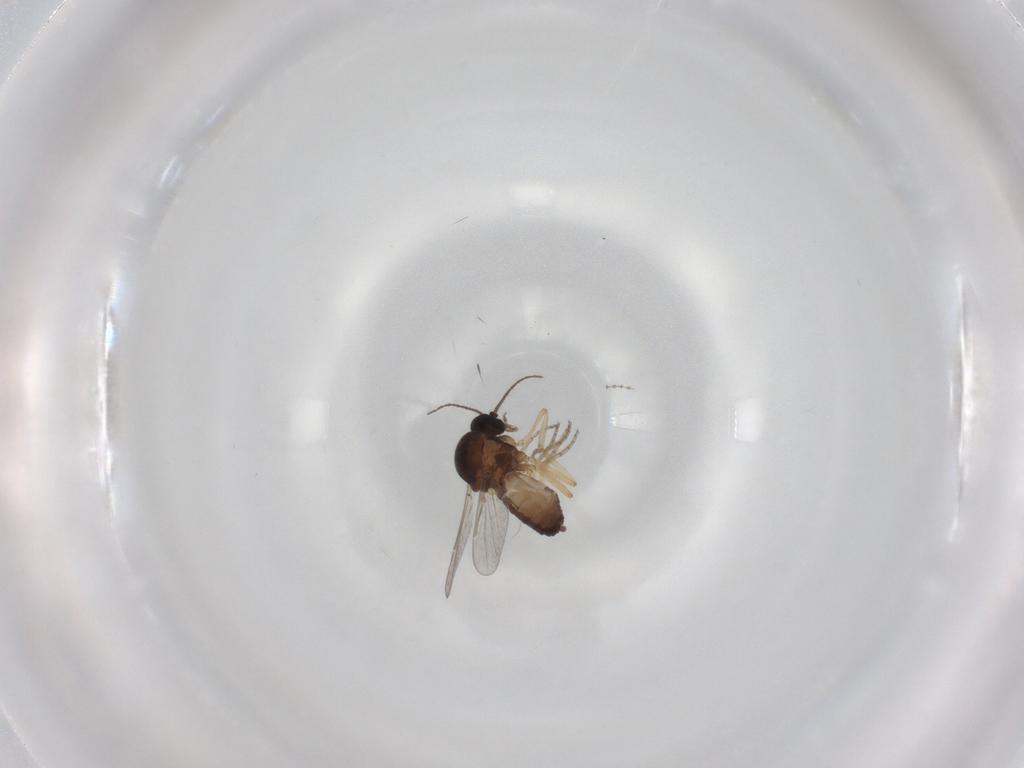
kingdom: Animalia
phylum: Arthropoda
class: Insecta
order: Diptera
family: Ceratopogonidae
